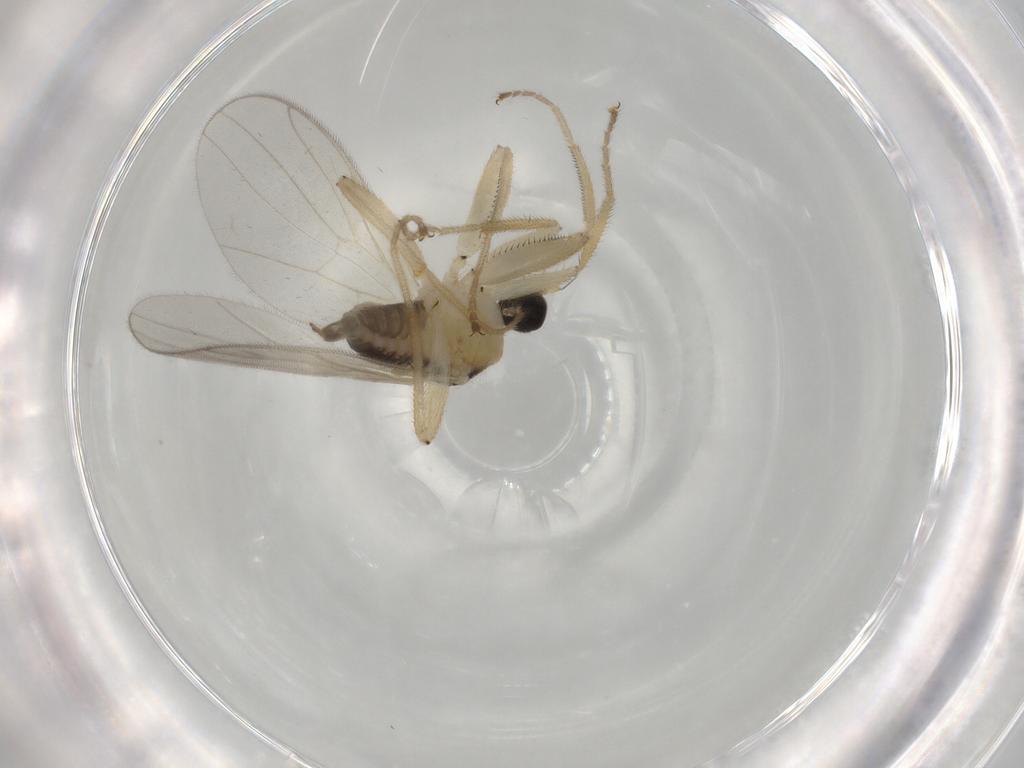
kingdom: Animalia
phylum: Arthropoda
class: Insecta
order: Diptera
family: Hybotidae
